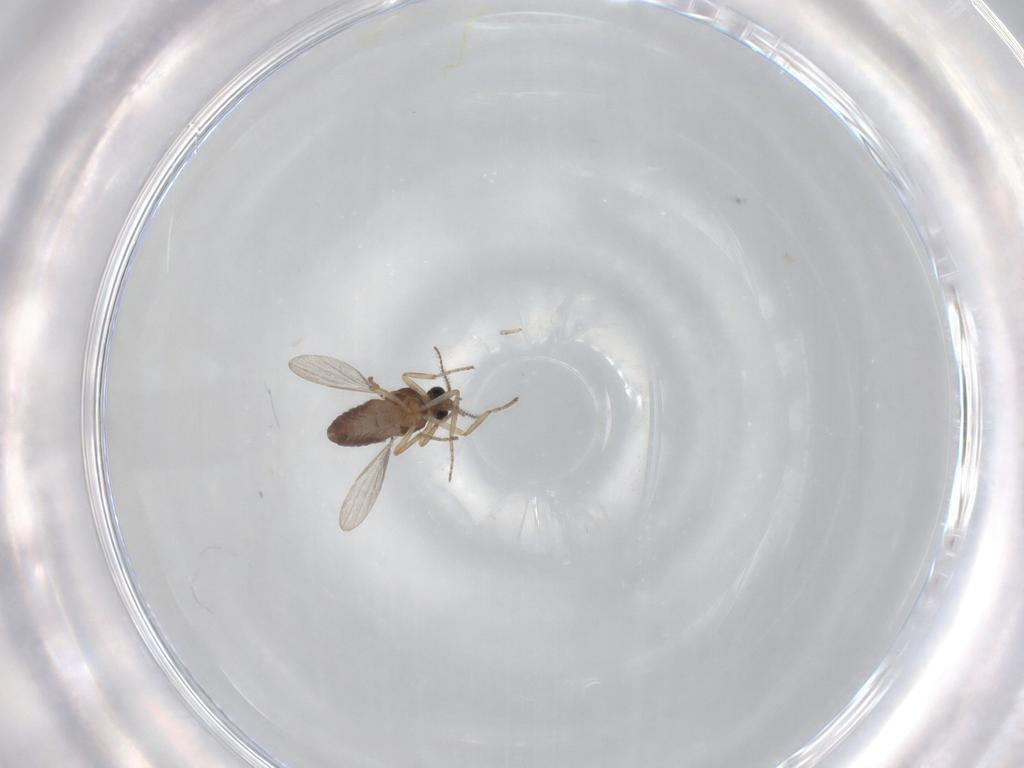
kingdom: Animalia
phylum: Arthropoda
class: Insecta
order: Diptera
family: Ceratopogonidae
